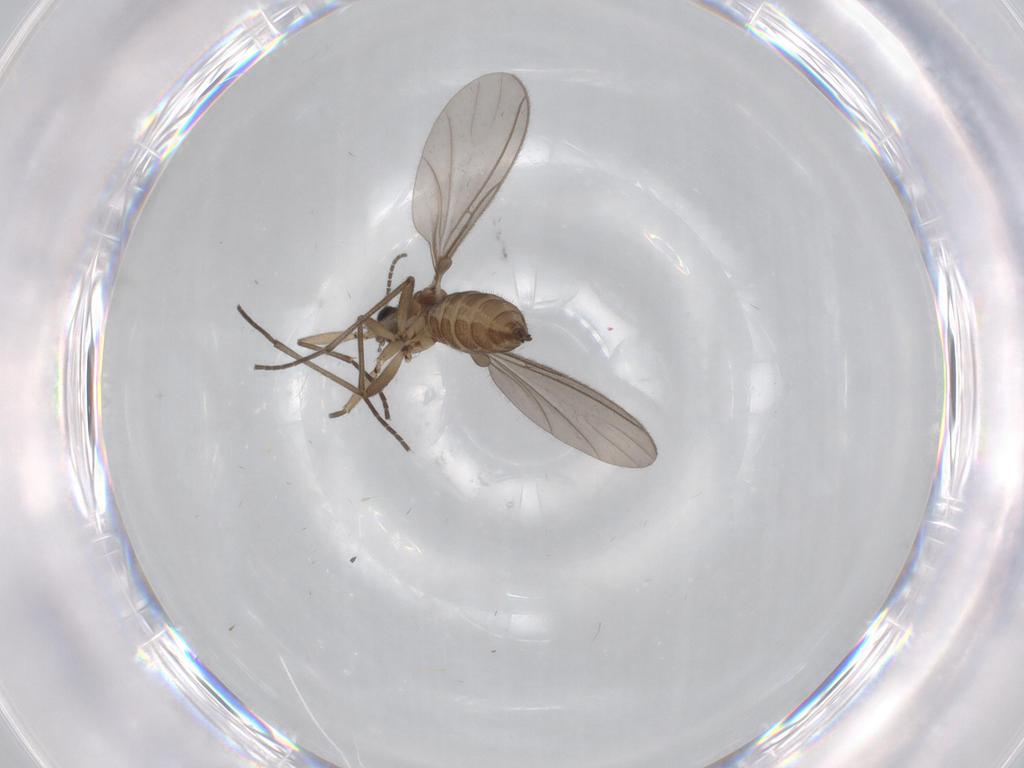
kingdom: Animalia
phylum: Arthropoda
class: Insecta
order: Diptera
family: Sciaridae
